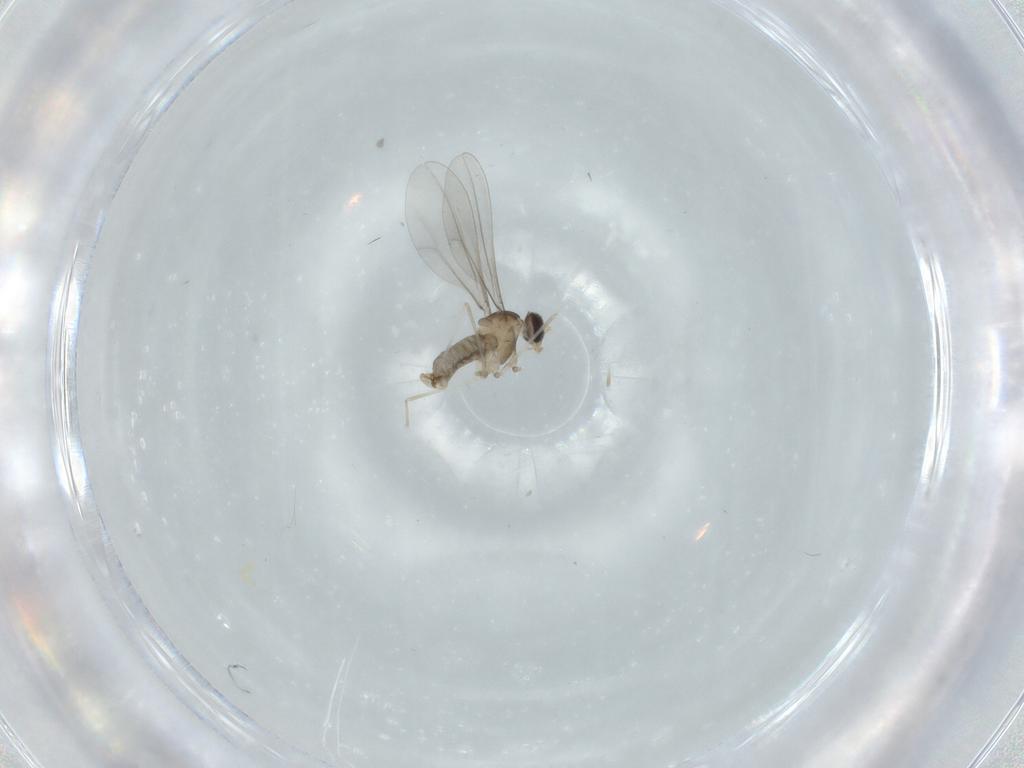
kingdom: Animalia
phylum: Arthropoda
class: Insecta
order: Diptera
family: Cecidomyiidae
